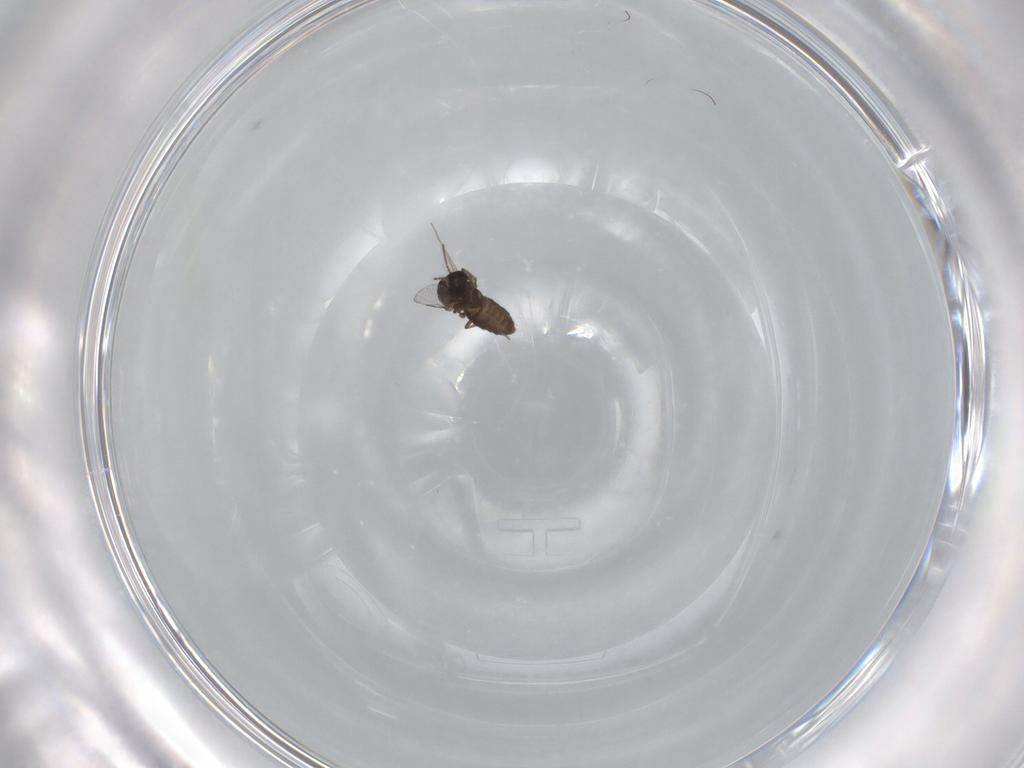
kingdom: Animalia
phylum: Arthropoda
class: Insecta
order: Diptera
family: Ceratopogonidae
